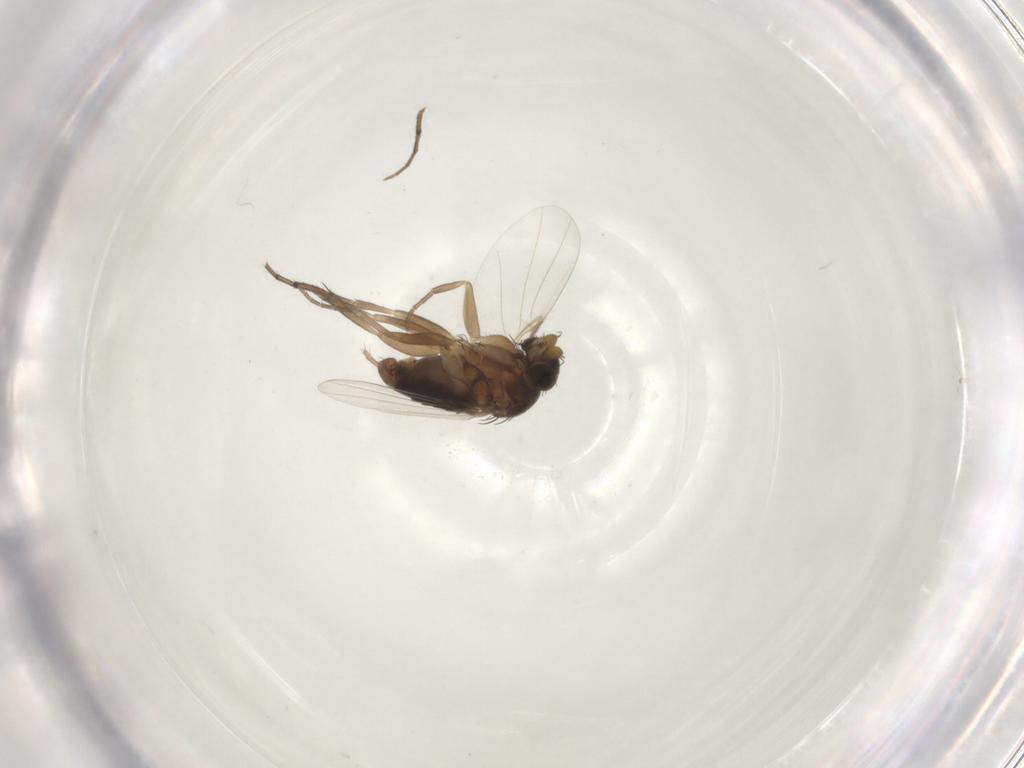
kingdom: Animalia
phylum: Arthropoda
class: Insecta
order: Diptera
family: Phoridae
